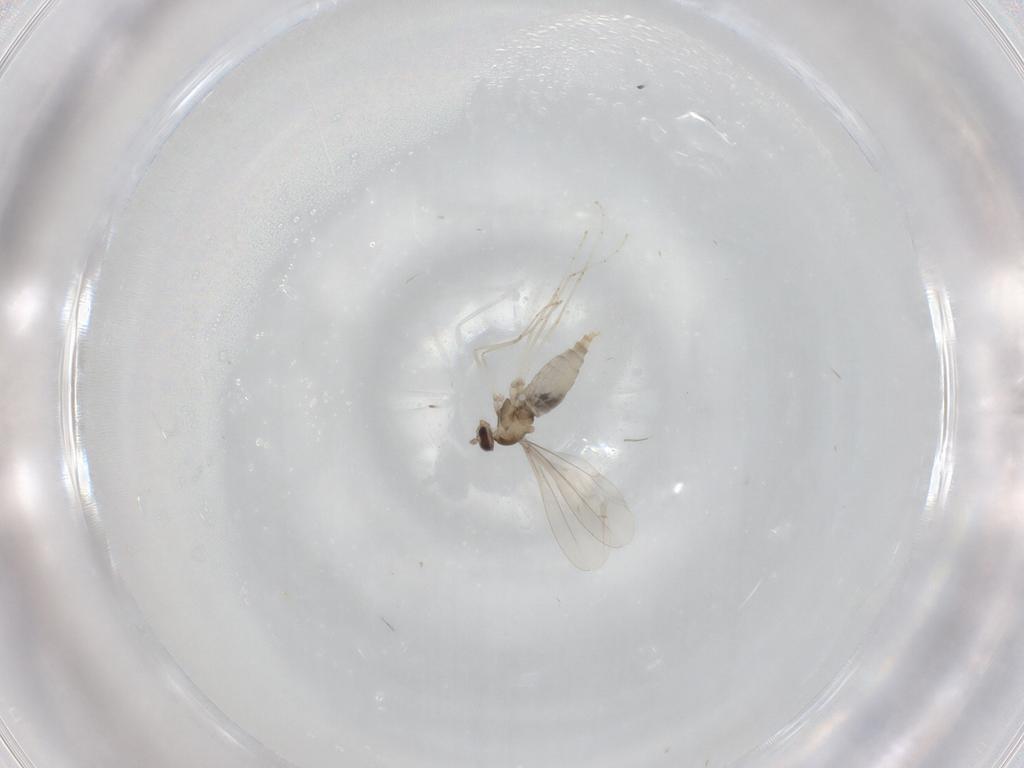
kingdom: Animalia
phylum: Arthropoda
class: Insecta
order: Diptera
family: Cecidomyiidae
